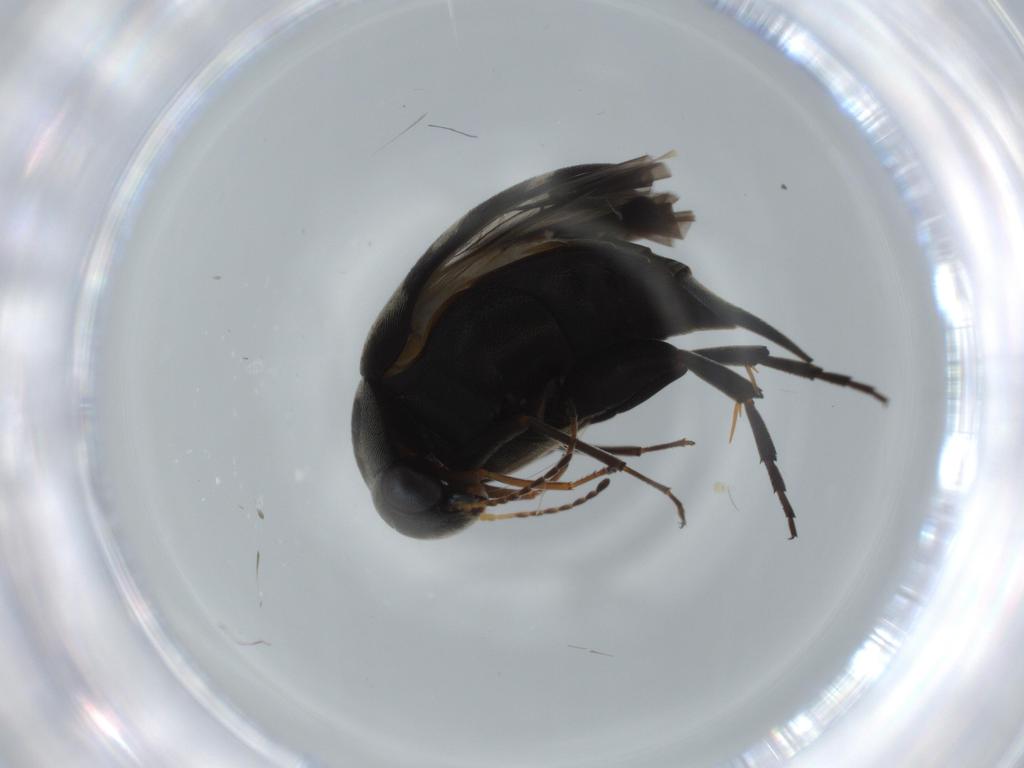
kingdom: Animalia
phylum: Arthropoda
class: Insecta
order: Coleoptera
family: Mordellidae
